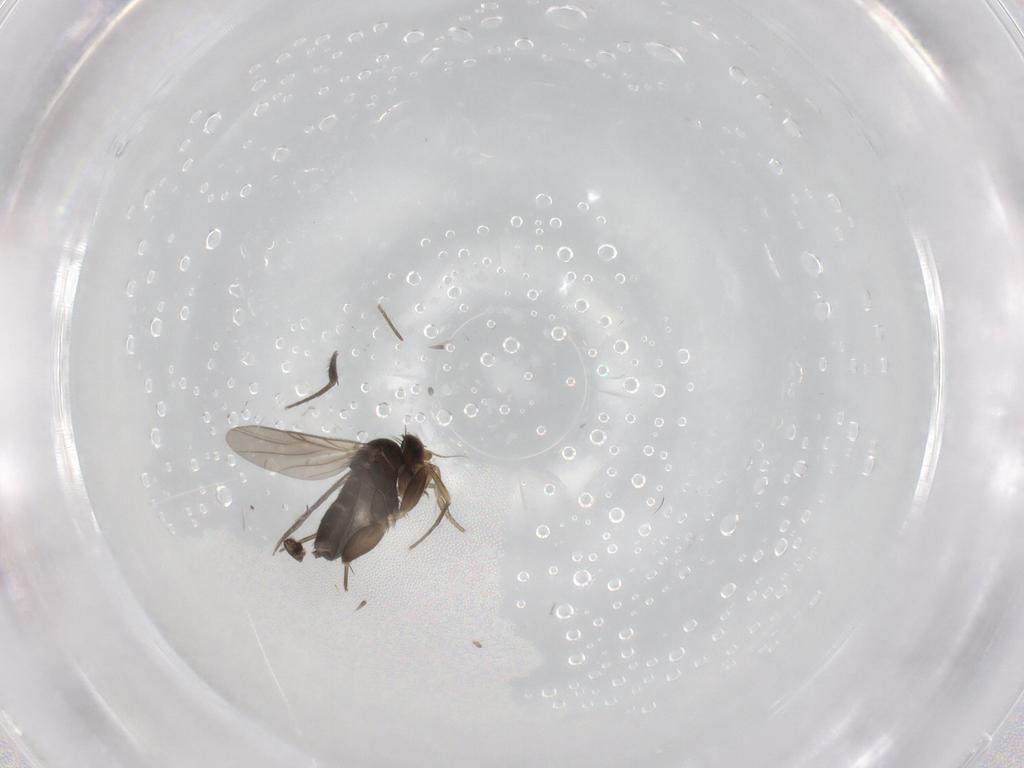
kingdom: Animalia
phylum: Arthropoda
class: Insecta
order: Diptera
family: Phoridae
